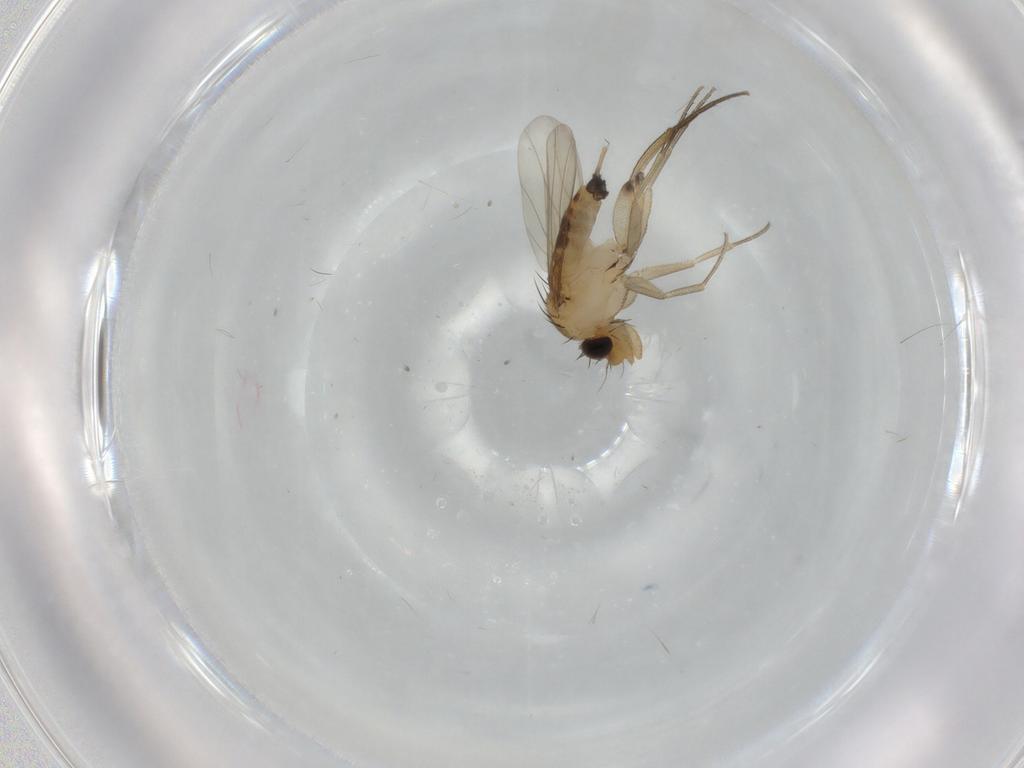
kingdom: Animalia
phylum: Arthropoda
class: Insecta
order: Diptera
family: Phoridae
